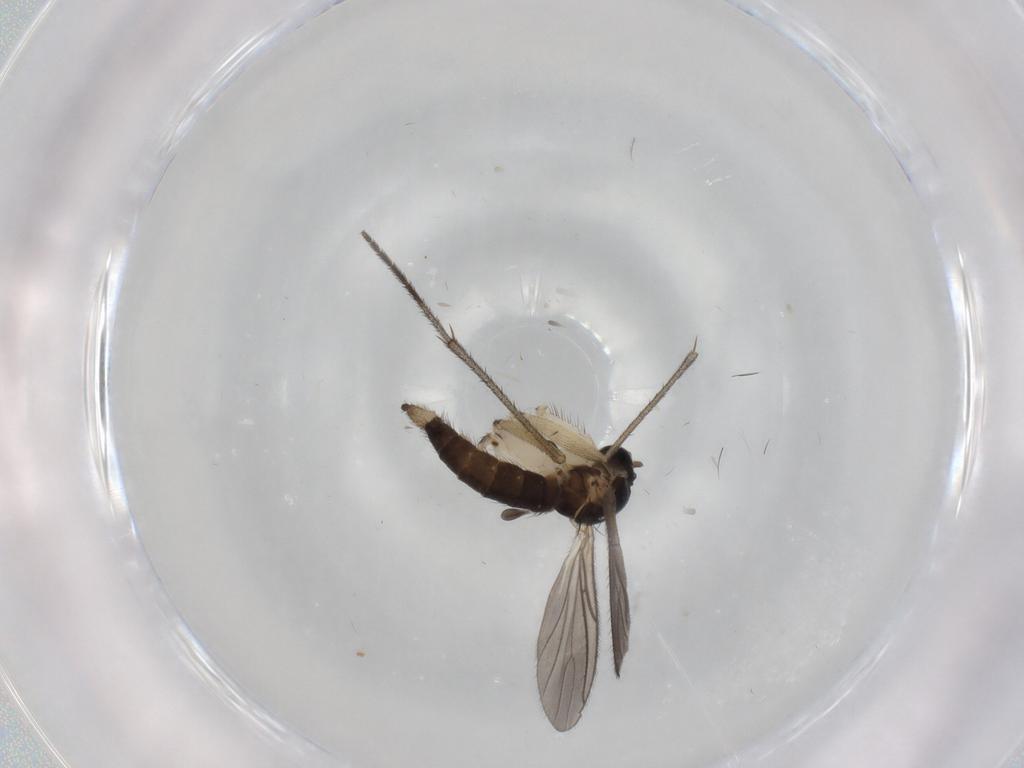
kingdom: Animalia
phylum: Arthropoda
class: Insecta
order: Diptera
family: Sciaridae
